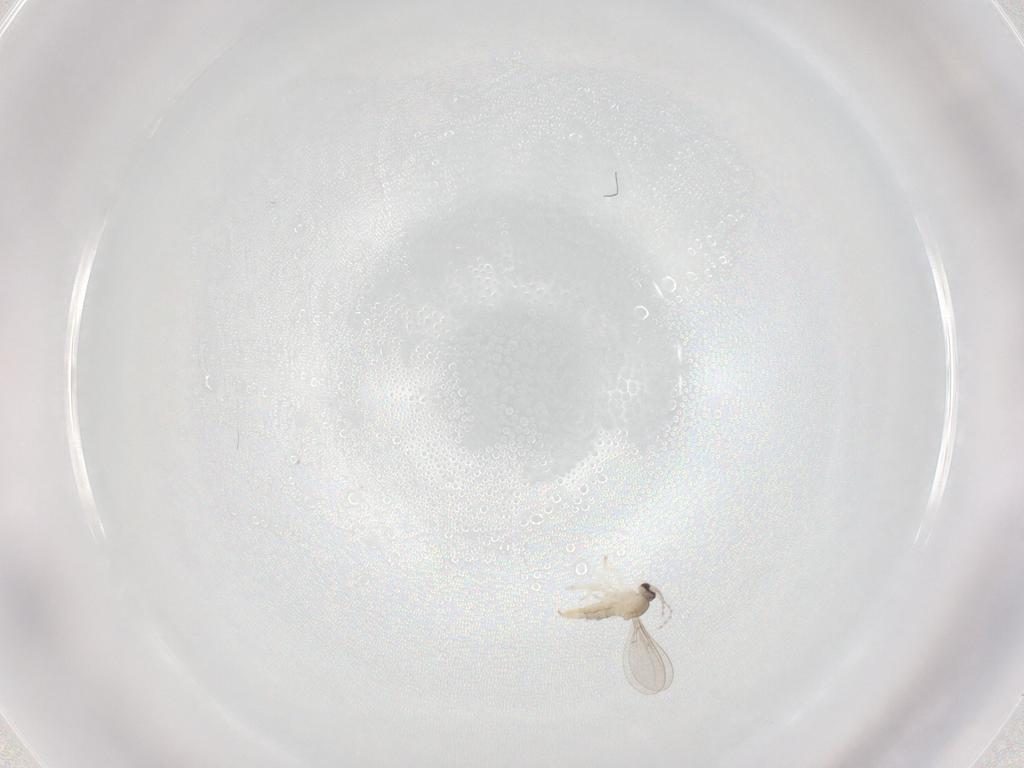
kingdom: Animalia
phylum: Arthropoda
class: Insecta
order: Diptera
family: Cecidomyiidae
